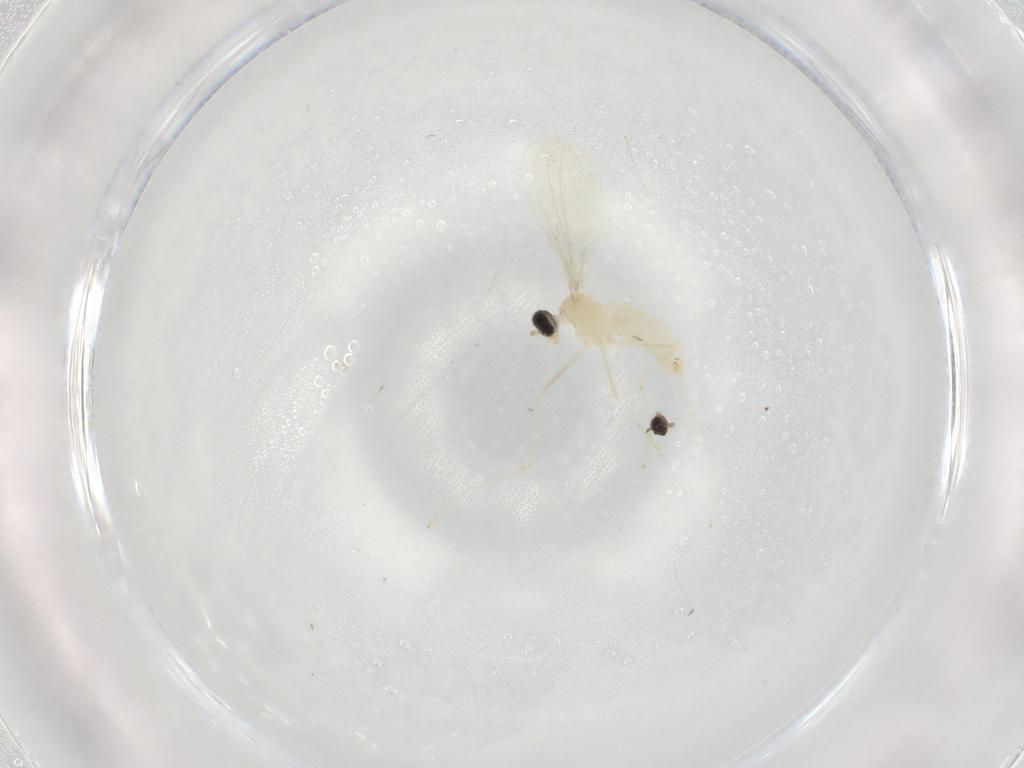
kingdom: Animalia
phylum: Arthropoda
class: Insecta
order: Diptera
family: Cecidomyiidae
